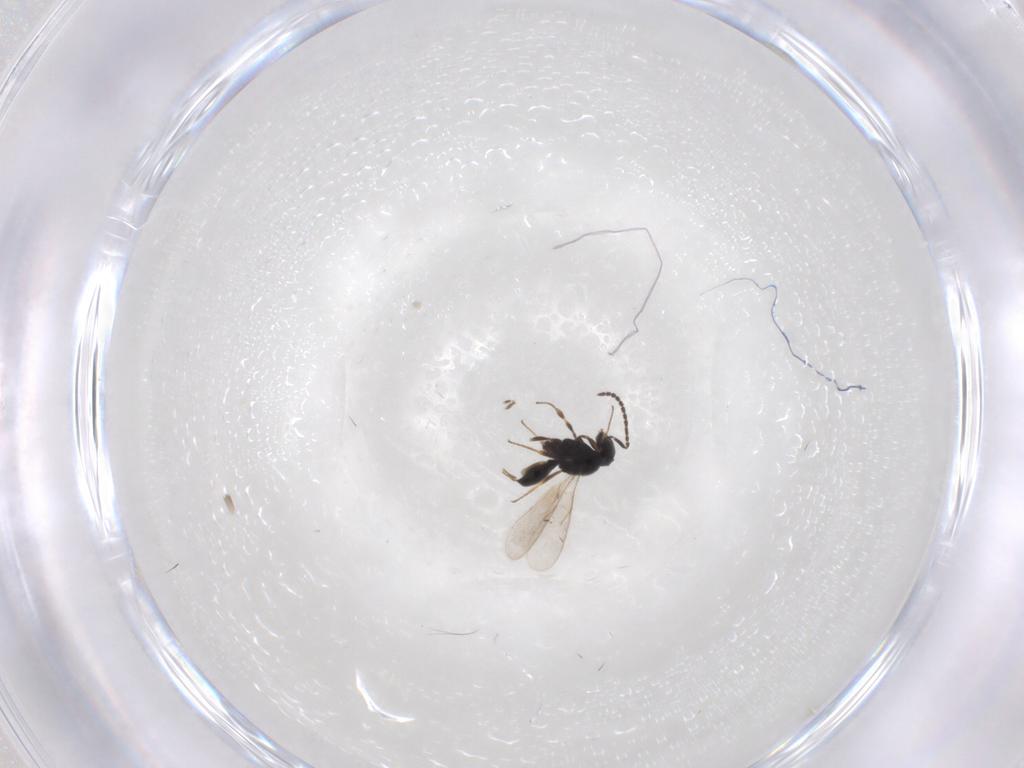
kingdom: Animalia
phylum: Arthropoda
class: Insecta
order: Hymenoptera
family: Scelionidae
